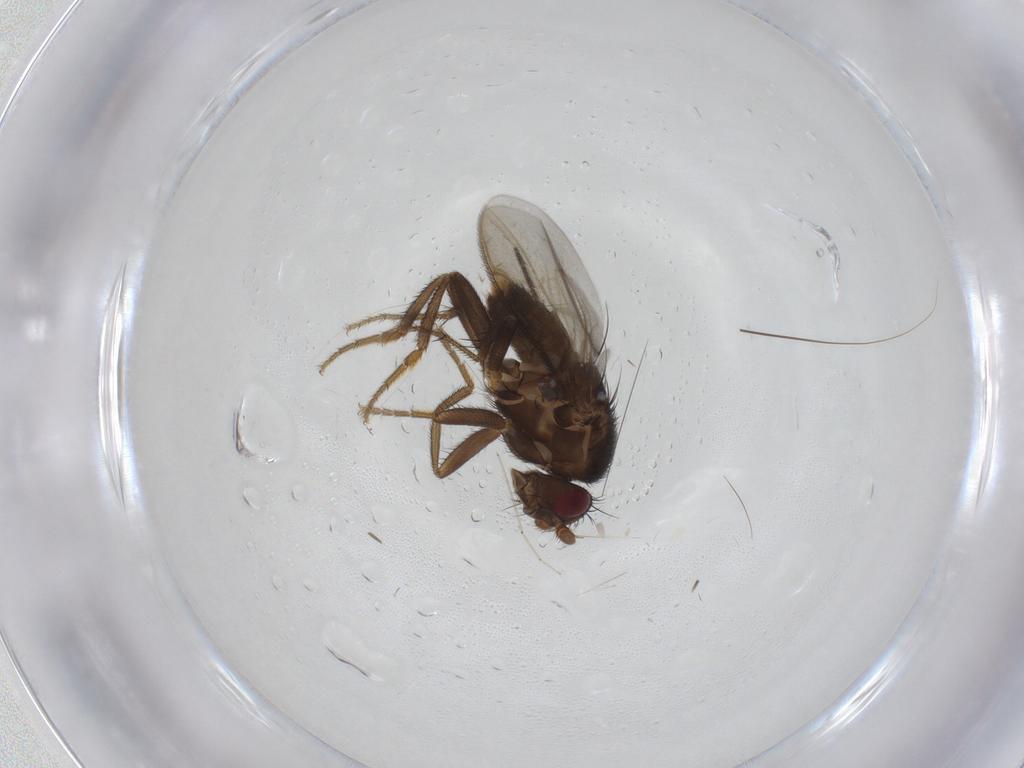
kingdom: Animalia
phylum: Arthropoda
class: Insecta
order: Diptera
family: Sphaeroceridae
